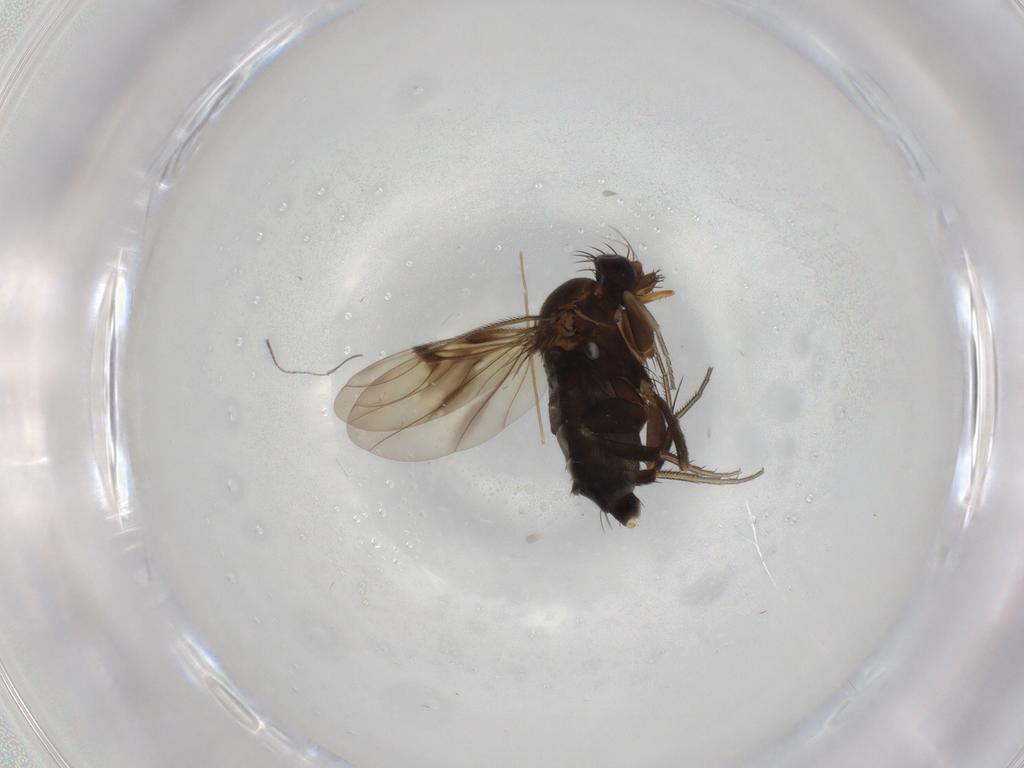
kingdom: Animalia
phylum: Arthropoda
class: Insecta
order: Diptera
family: Phoridae
